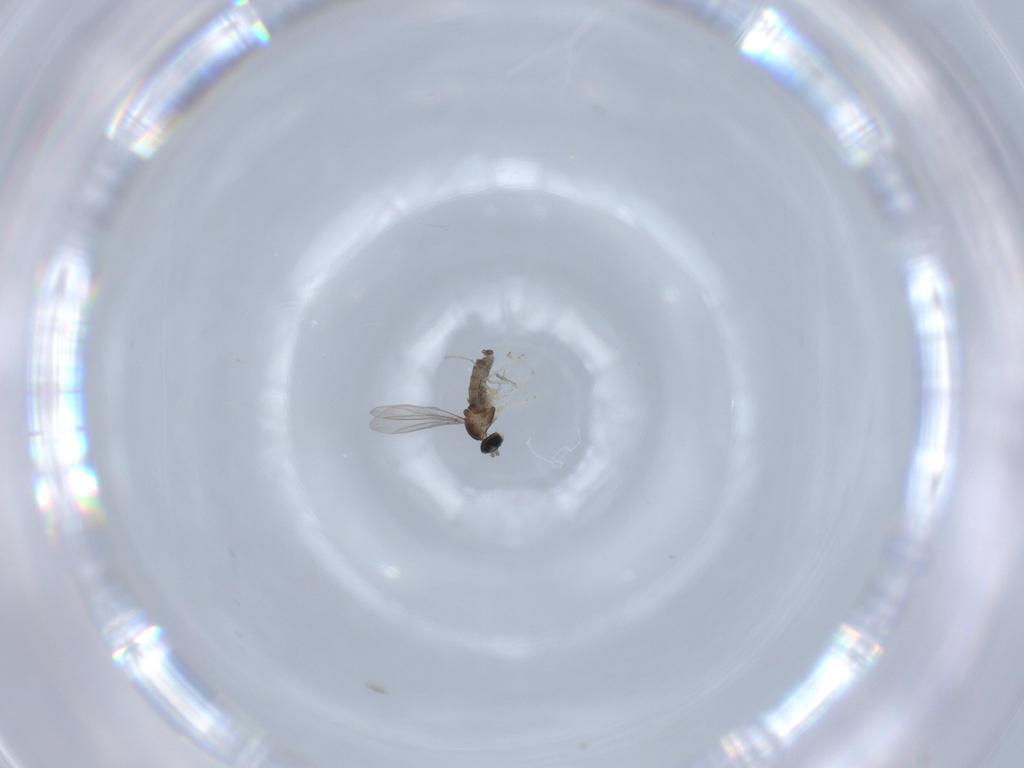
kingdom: Animalia
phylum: Arthropoda
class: Insecta
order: Diptera
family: Cecidomyiidae
